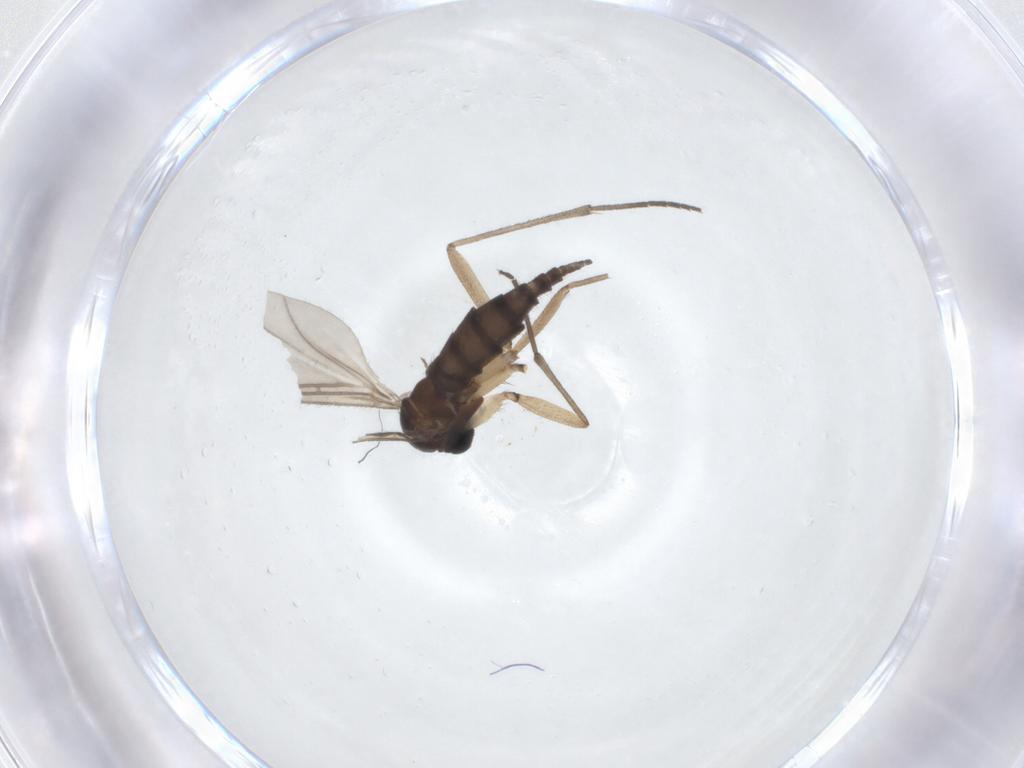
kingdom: Animalia
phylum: Arthropoda
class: Insecta
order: Diptera
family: Sciaridae
